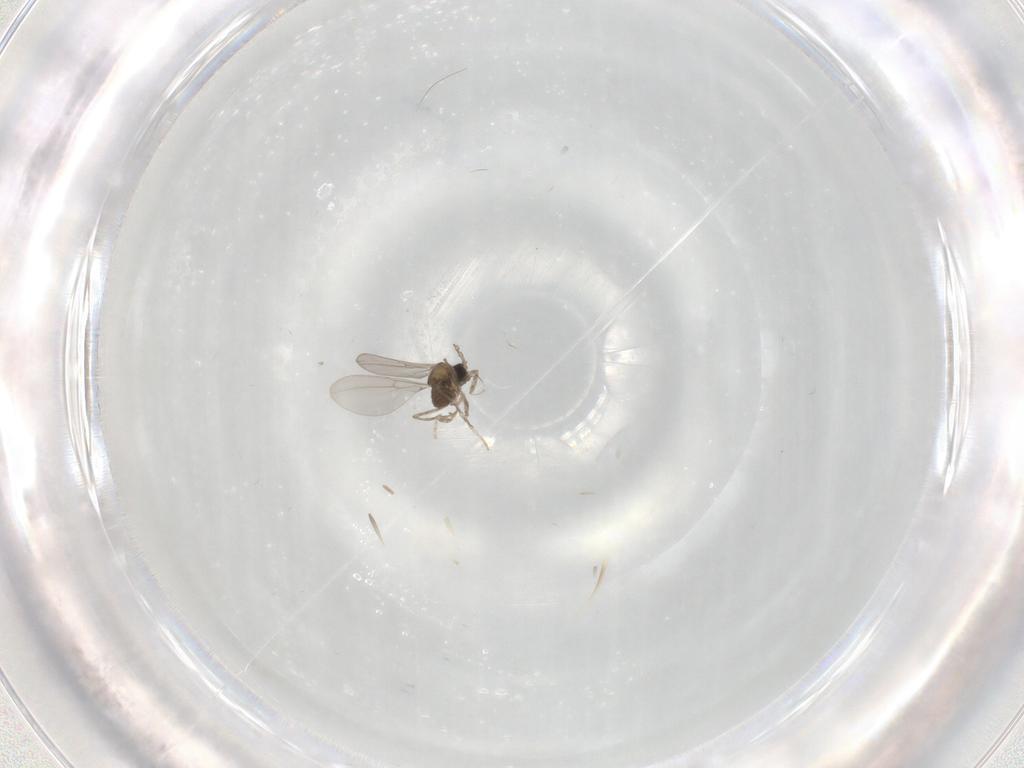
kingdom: Animalia
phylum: Arthropoda
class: Insecta
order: Diptera
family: Cecidomyiidae
